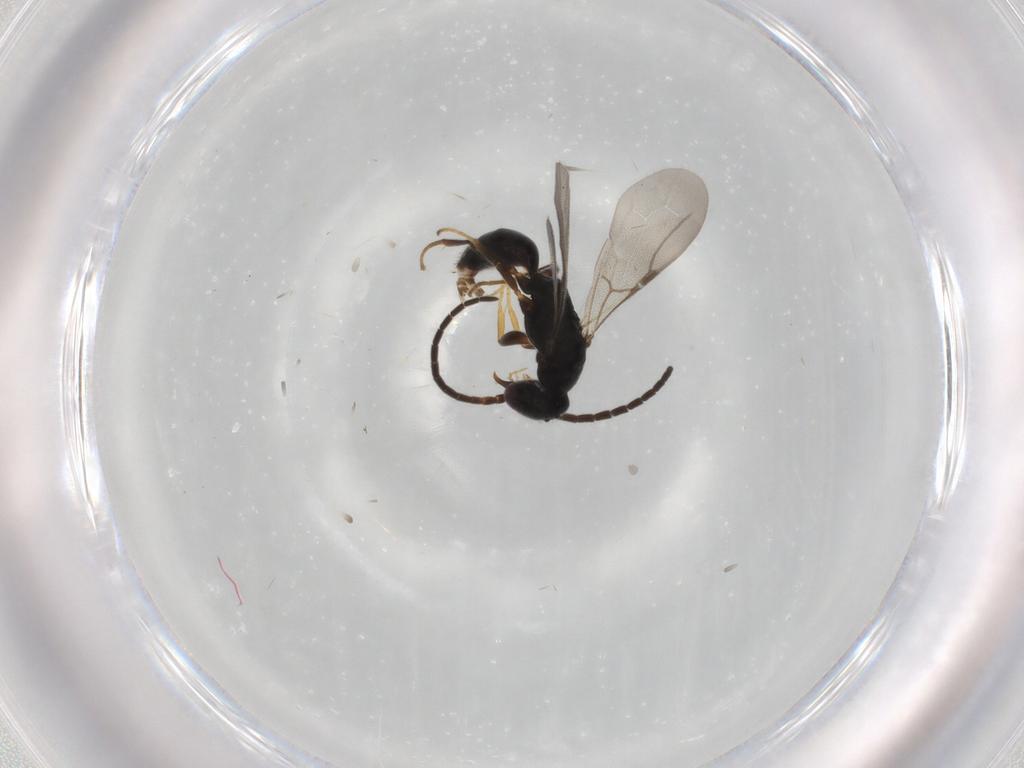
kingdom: Animalia
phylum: Arthropoda
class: Insecta
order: Hymenoptera
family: Bethylidae
